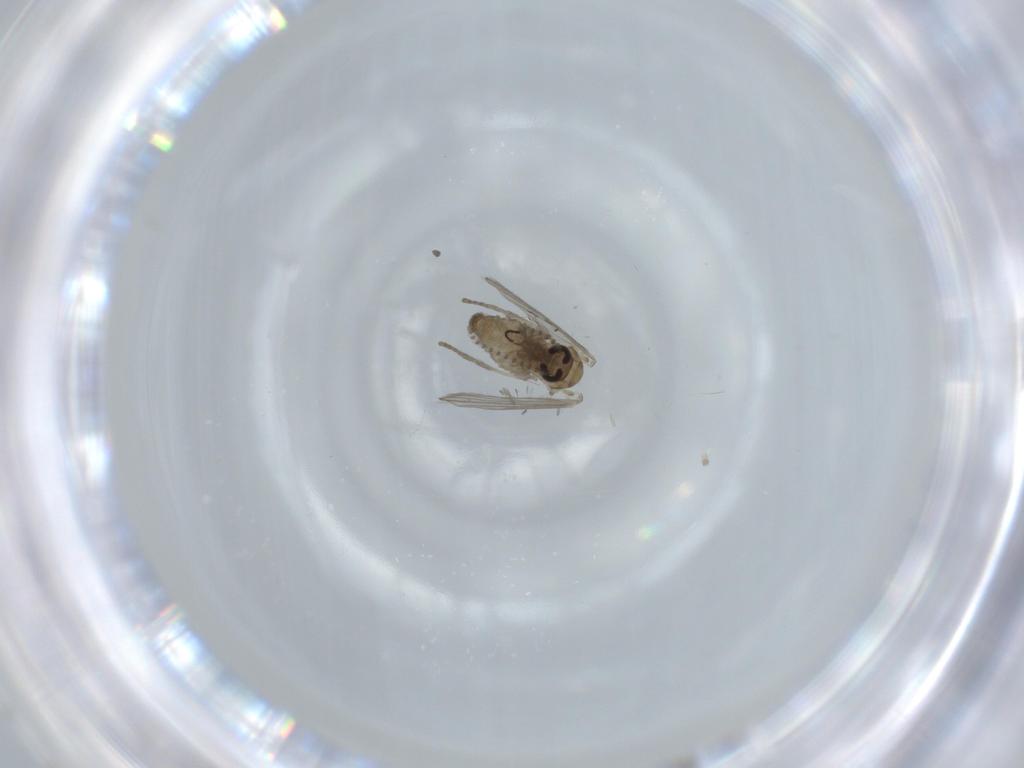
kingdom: Animalia
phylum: Arthropoda
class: Insecta
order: Diptera
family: Psychodidae
